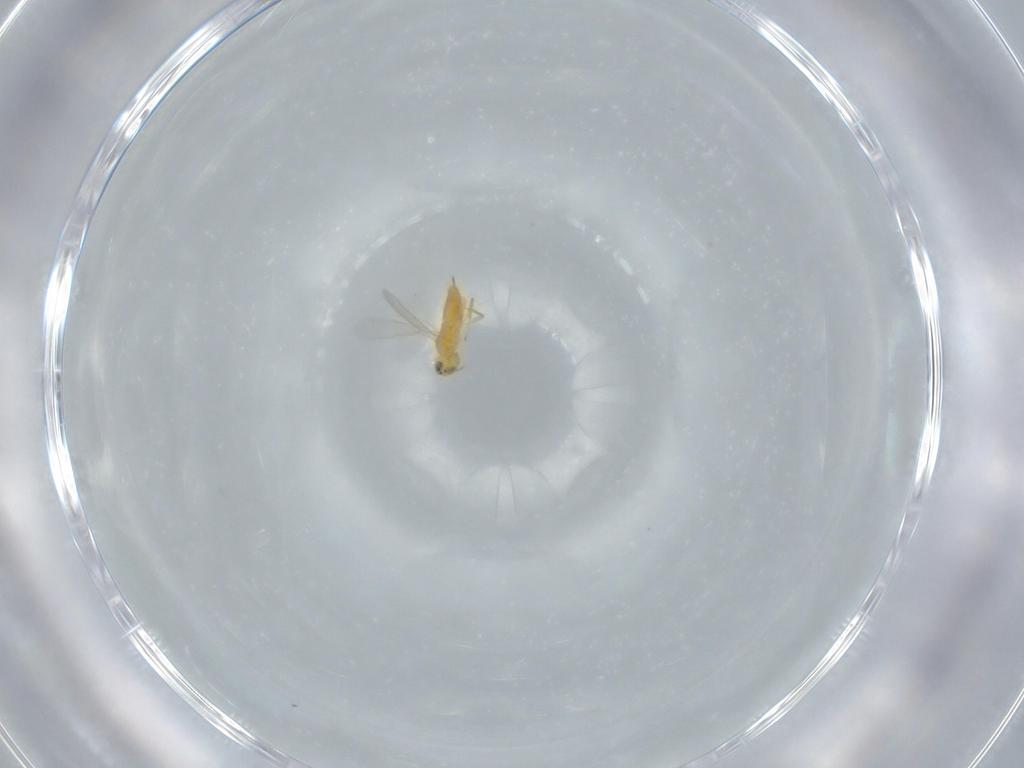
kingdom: Animalia
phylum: Arthropoda
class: Insecta
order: Hymenoptera
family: Aphelinidae
